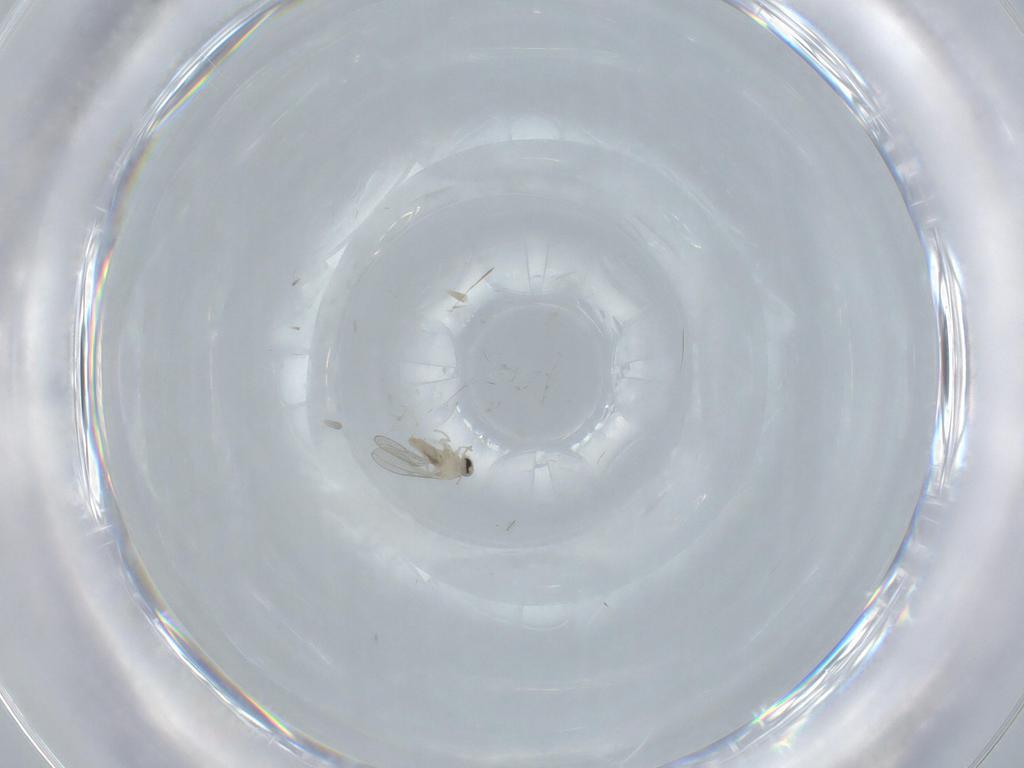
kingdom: Animalia
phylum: Arthropoda
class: Insecta
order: Diptera
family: Cecidomyiidae
